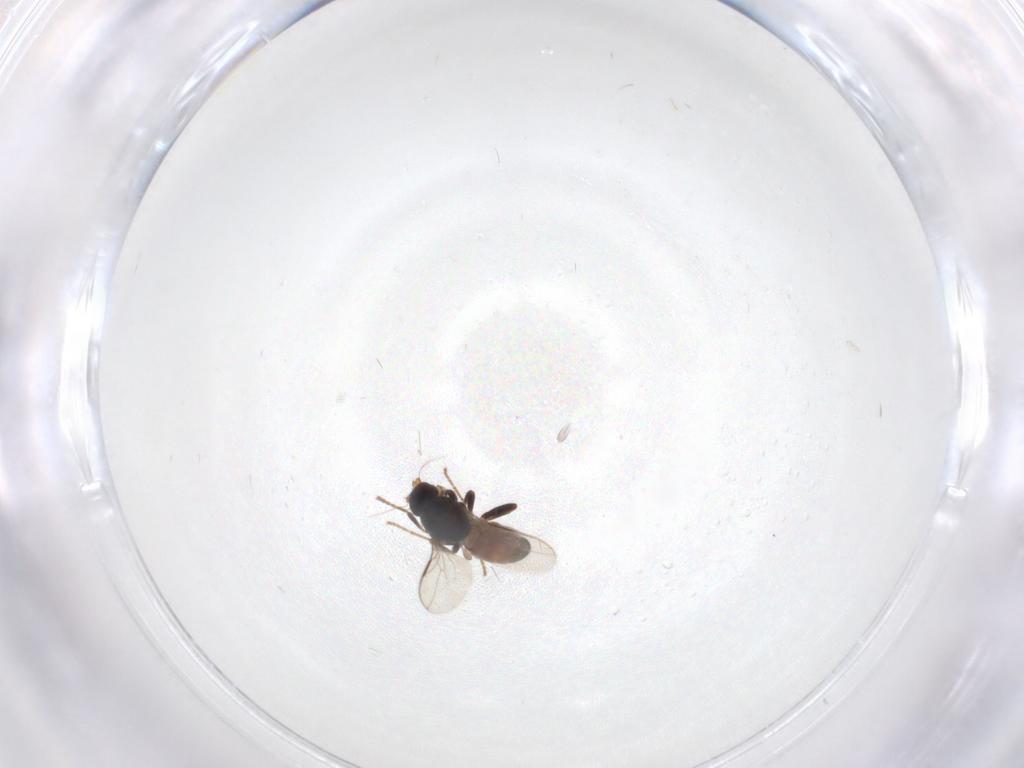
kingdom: Animalia
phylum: Arthropoda
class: Insecta
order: Diptera
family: Sphaeroceridae
